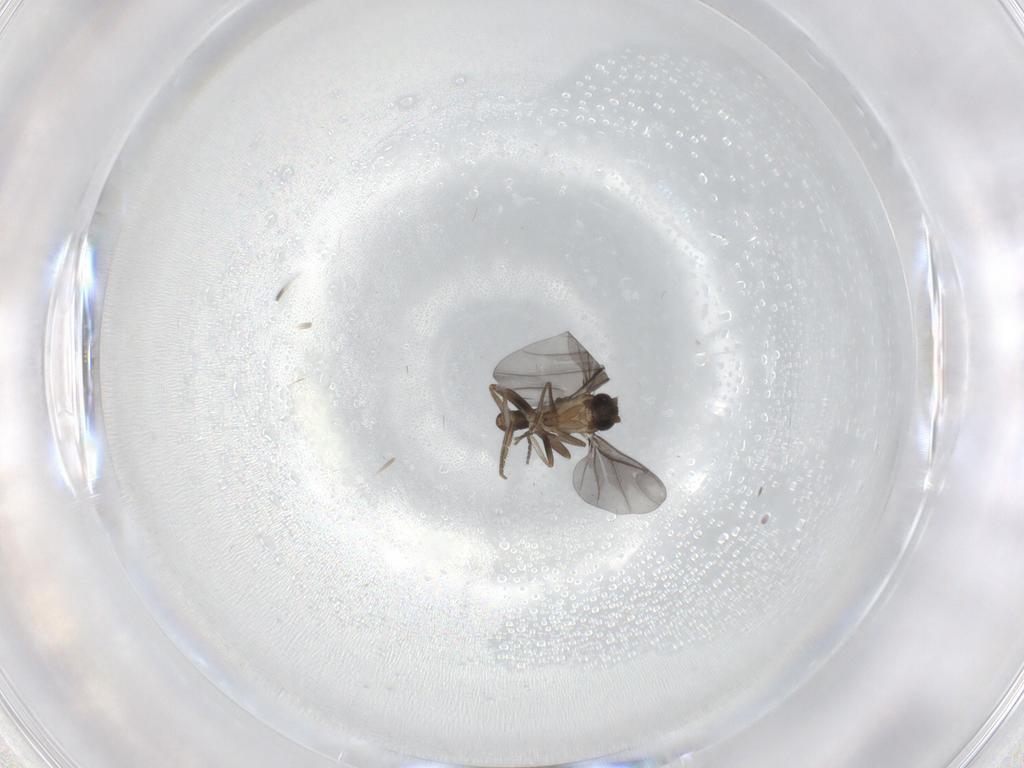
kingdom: Animalia
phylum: Arthropoda
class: Insecta
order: Diptera
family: Phoridae
